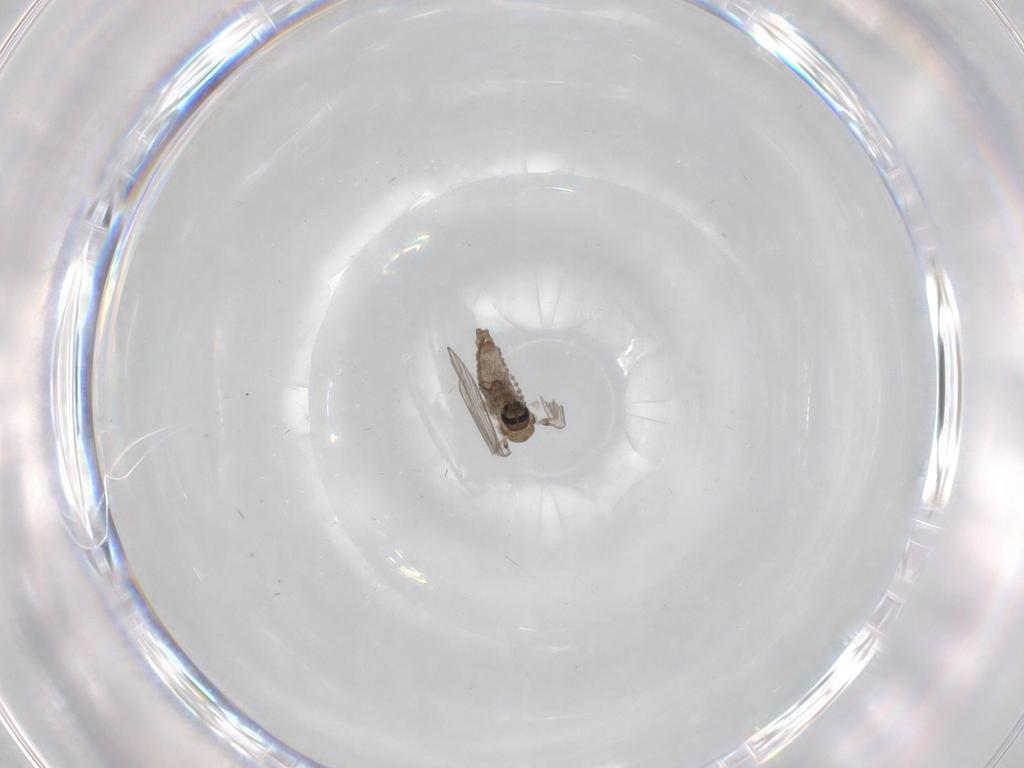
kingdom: Animalia
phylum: Arthropoda
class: Insecta
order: Diptera
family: Psychodidae
